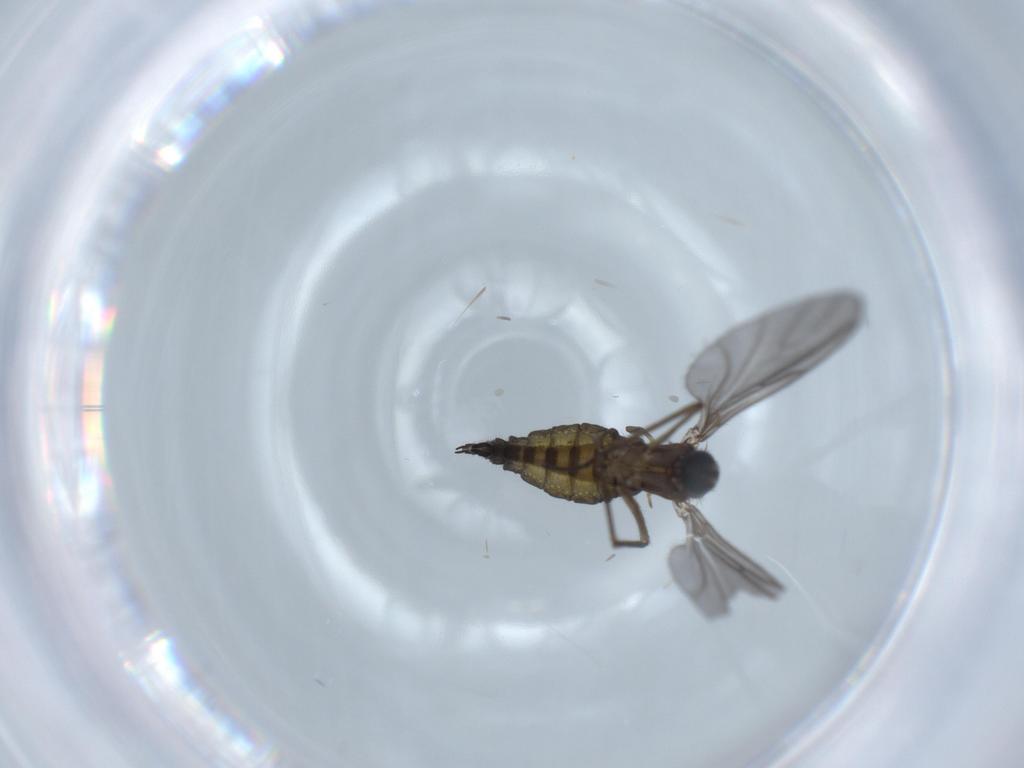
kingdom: Animalia
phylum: Arthropoda
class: Insecta
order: Diptera
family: Sciaridae
